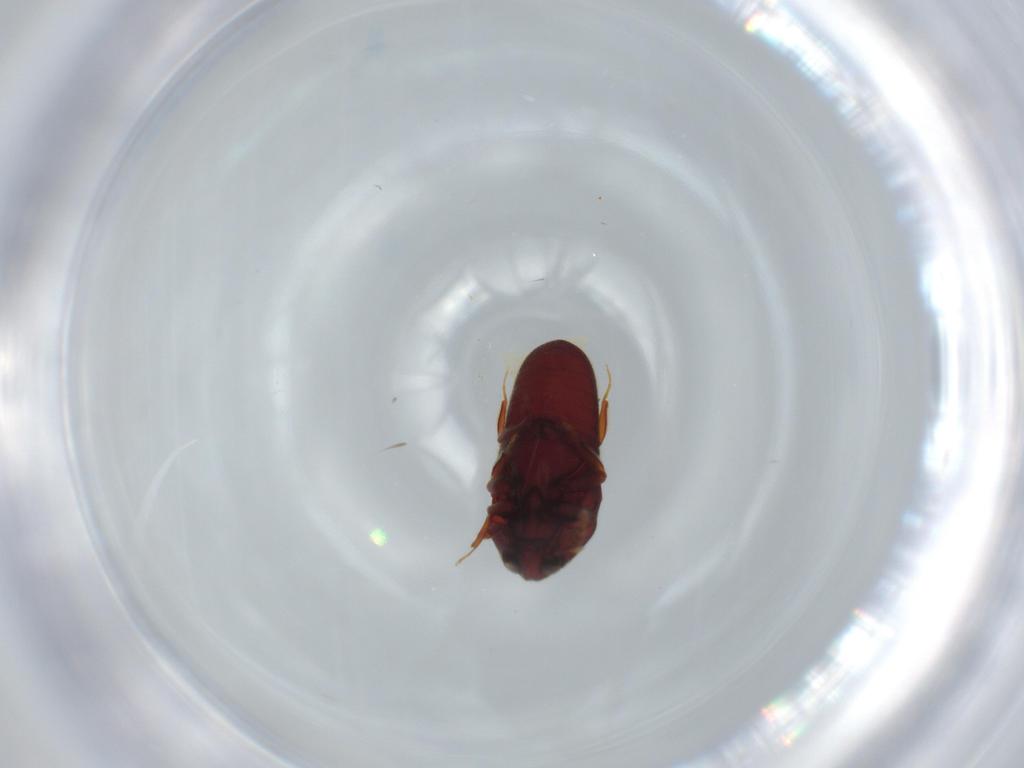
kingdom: Animalia
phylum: Arthropoda
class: Insecta
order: Coleoptera
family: Throscidae
